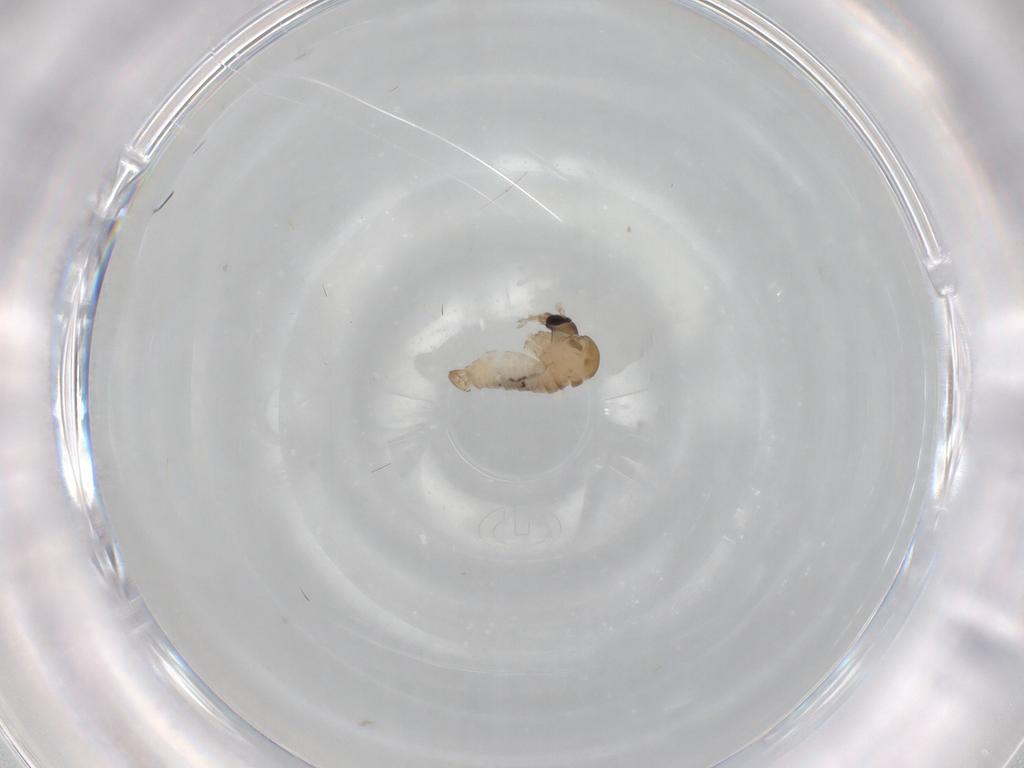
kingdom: Animalia
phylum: Arthropoda
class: Insecta
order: Diptera
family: Psychodidae
